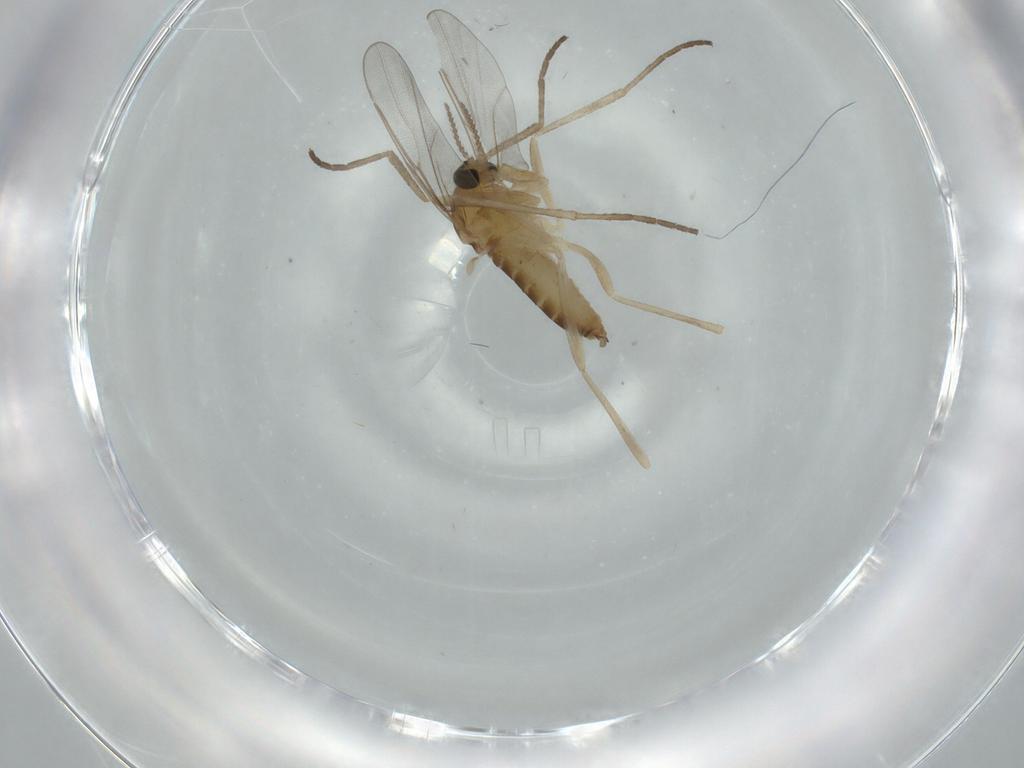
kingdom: Animalia
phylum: Arthropoda
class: Insecta
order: Diptera
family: Cecidomyiidae
